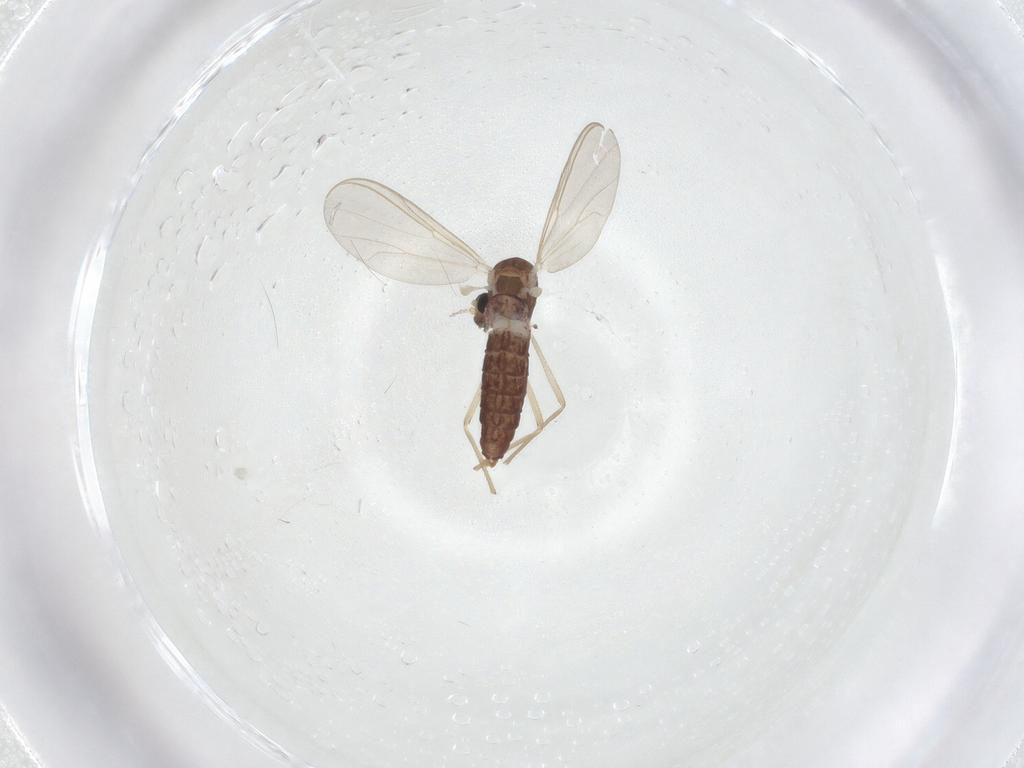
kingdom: Animalia
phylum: Arthropoda
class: Insecta
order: Diptera
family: Chironomidae
